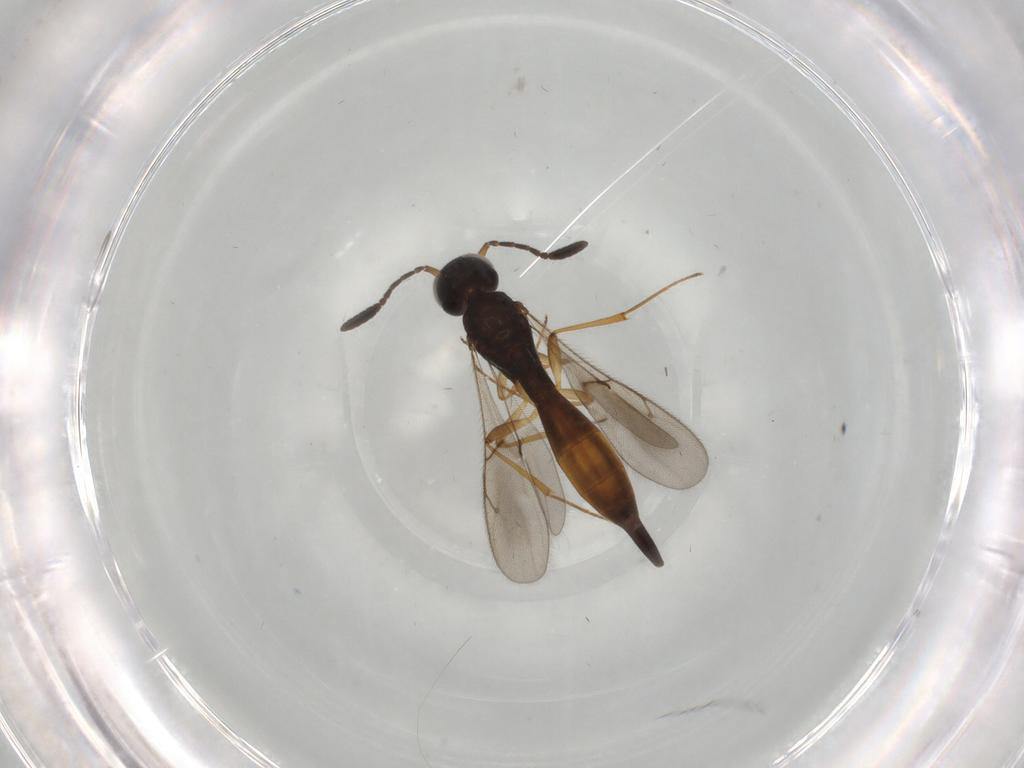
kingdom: Animalia
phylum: Arthropoda
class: Insecta
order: Hymenoptera
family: Scelionidae
